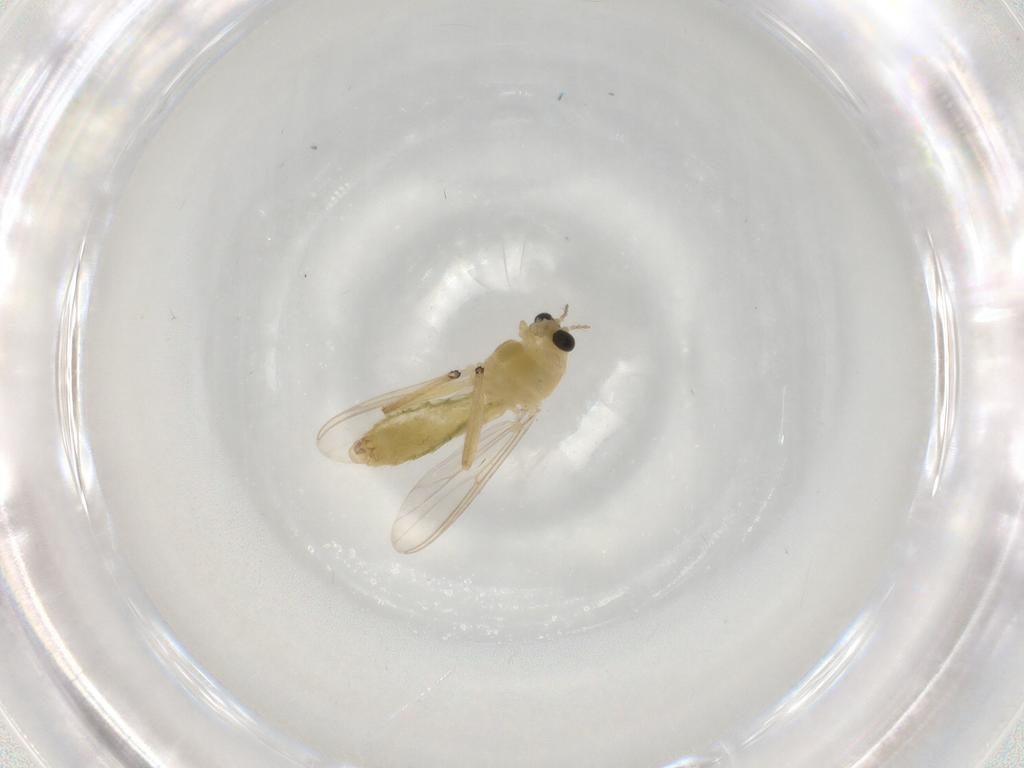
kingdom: Animalia
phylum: Arthropoda
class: Insecta
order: Diptera
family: Chironomidae
